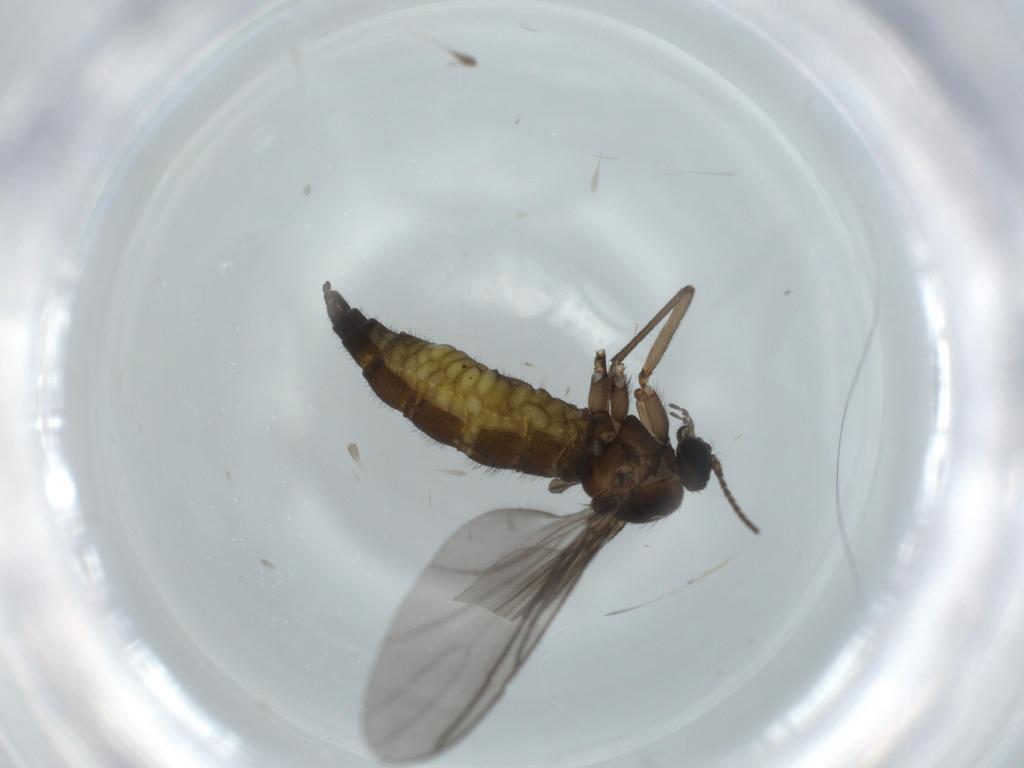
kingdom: Animalia
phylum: Arthropoda
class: Insecta
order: Diptera
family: Sciaridae
